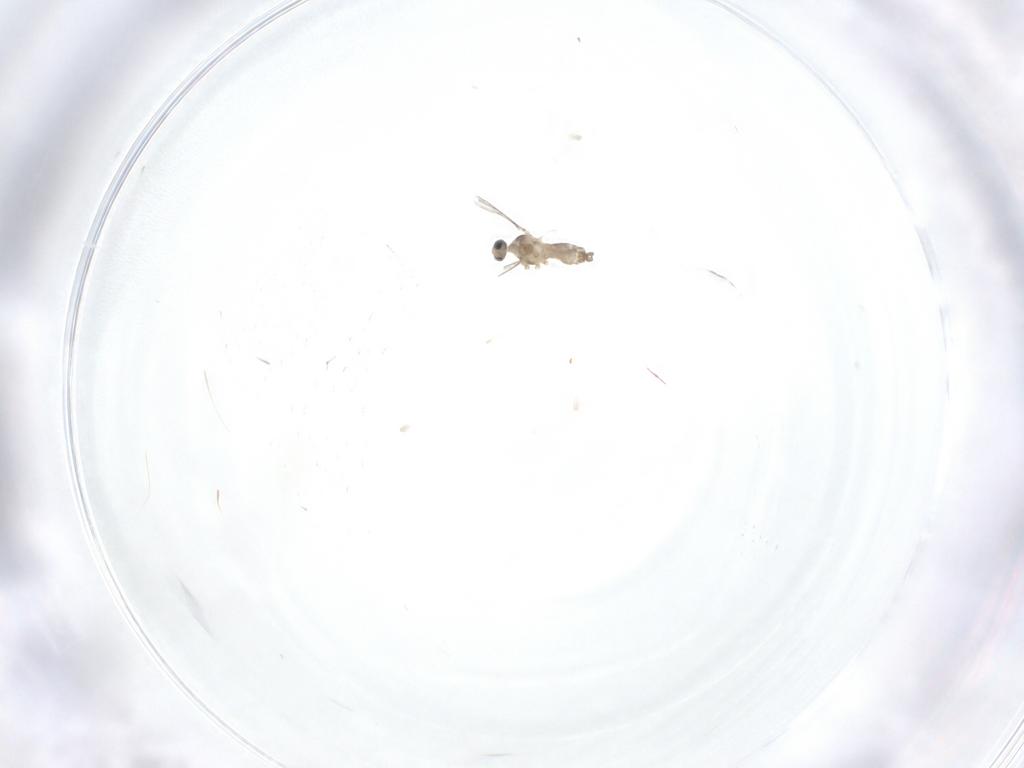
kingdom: Animalia
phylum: Arthropoda
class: Insecta
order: Diptera
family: Cecidomyiidae
